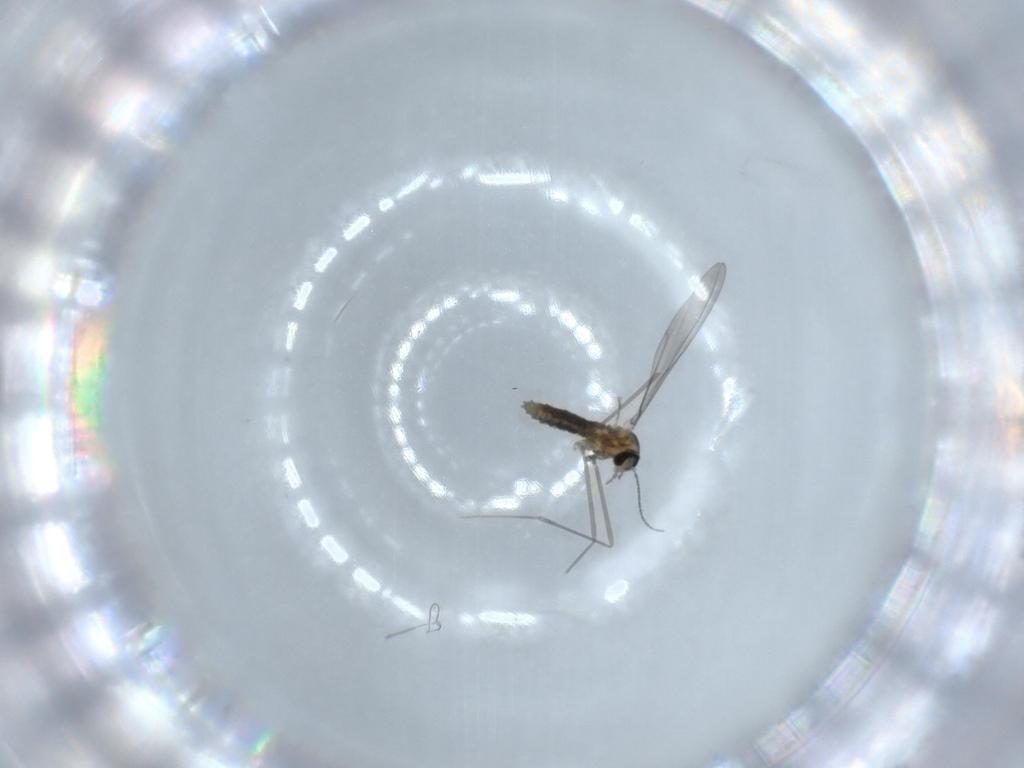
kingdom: Animalia
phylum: Arthropoda
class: Insecta
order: Diptera
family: Cecidomyiidae
